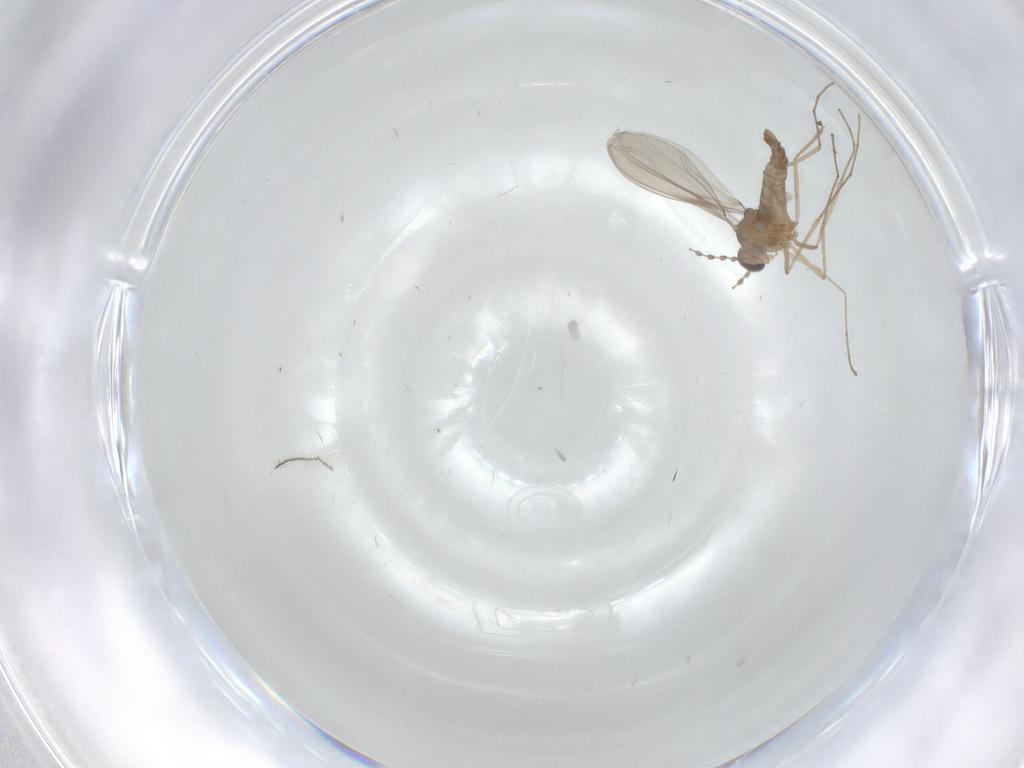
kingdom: Animalia
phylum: Arthropoda
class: Insecta
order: Diptera
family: Cecidomyiidae
